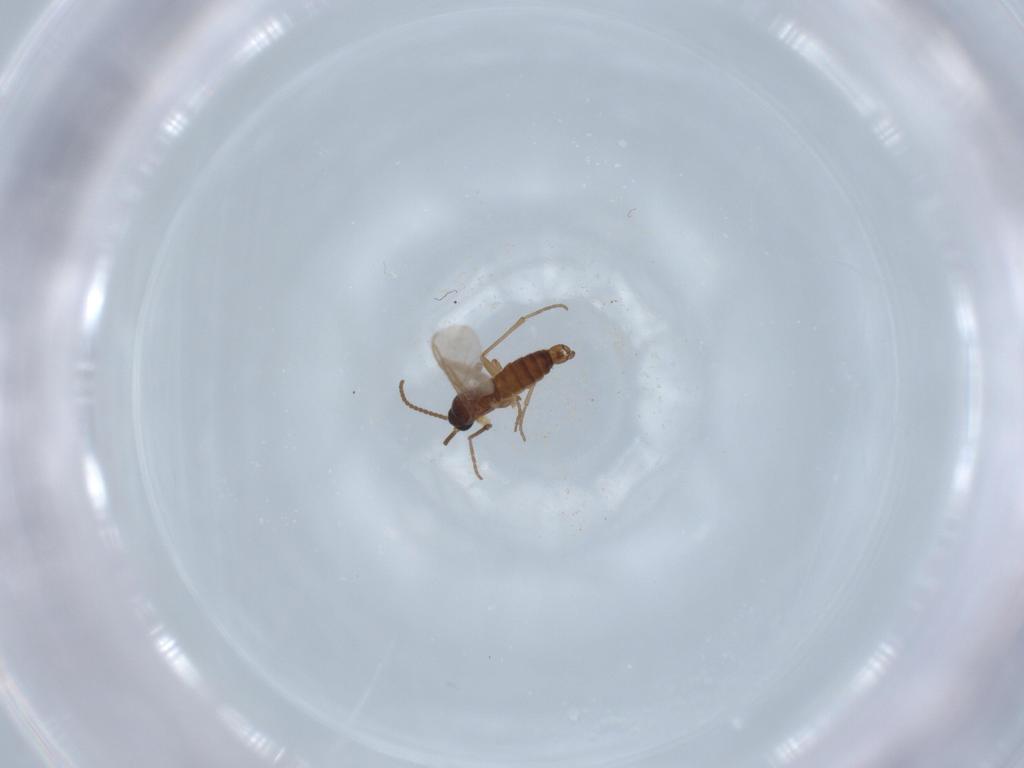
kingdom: Animalia
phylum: Arthropoda
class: Insecta
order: Diptera
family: Sciaridae
